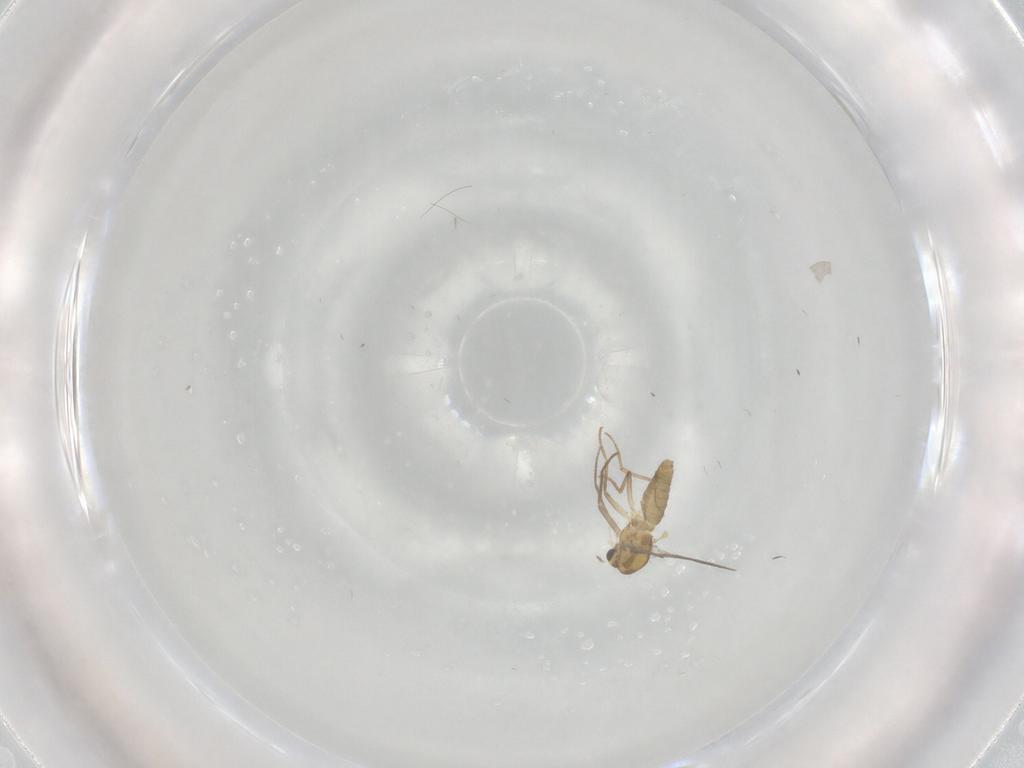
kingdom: Animalia
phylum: Arthropoda
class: Insecta
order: Diptera
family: Chironomidae
